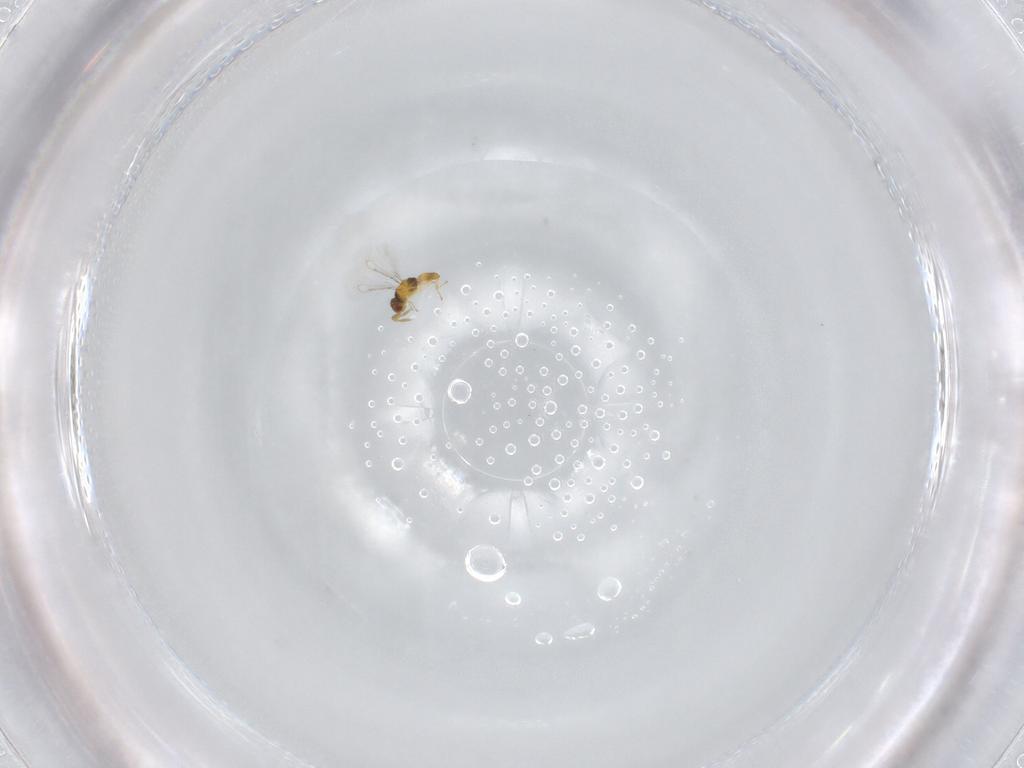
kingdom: Animalia
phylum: Arthropoda
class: Insecta
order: Hymenoptera
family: Eulophidae
